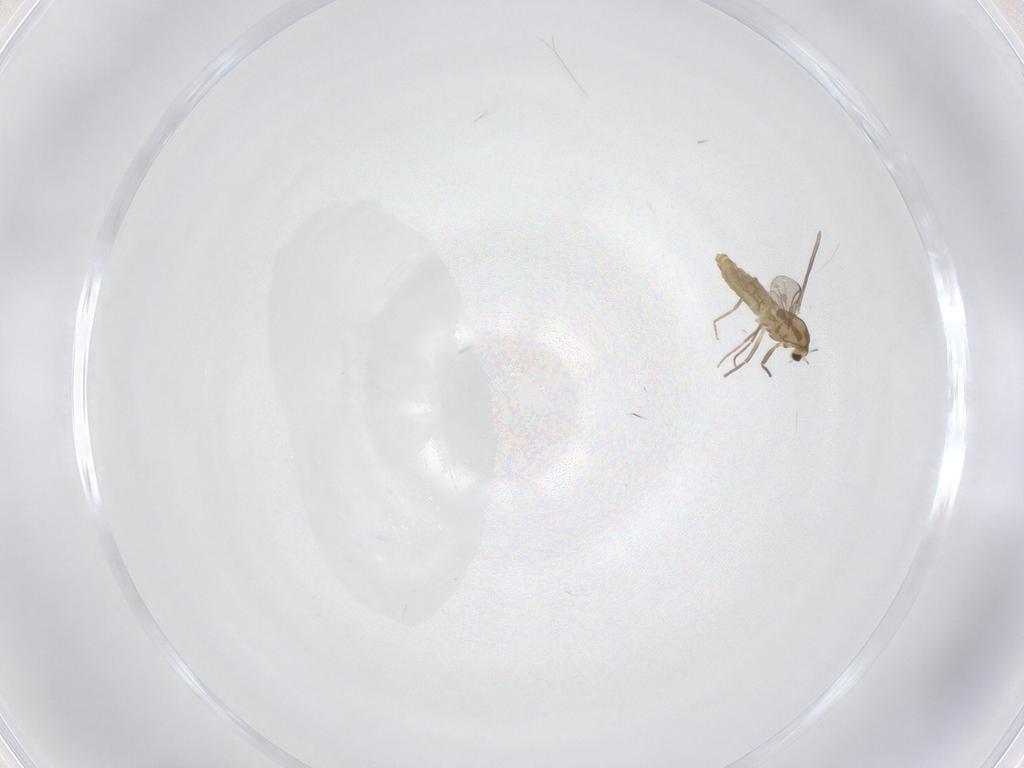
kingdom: Animalia
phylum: Arthropoda
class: Insecta
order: Diptera
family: Chironomidae
